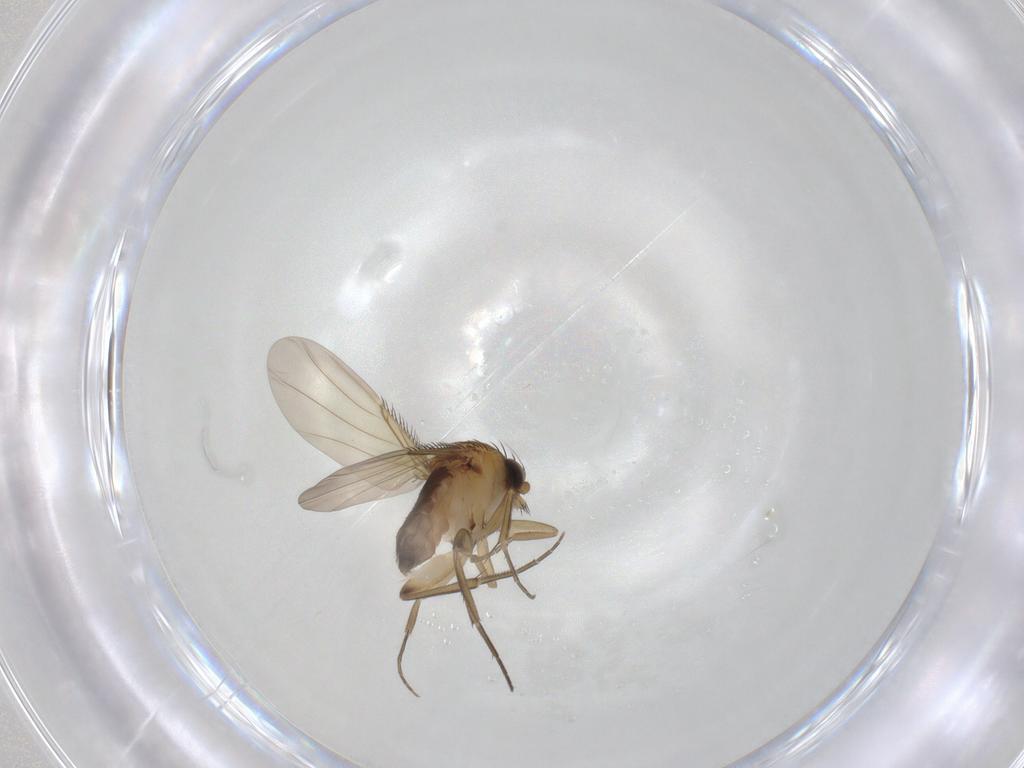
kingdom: Animalia
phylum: Arthropoda
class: Insecta
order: Diptera
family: Phoridae
